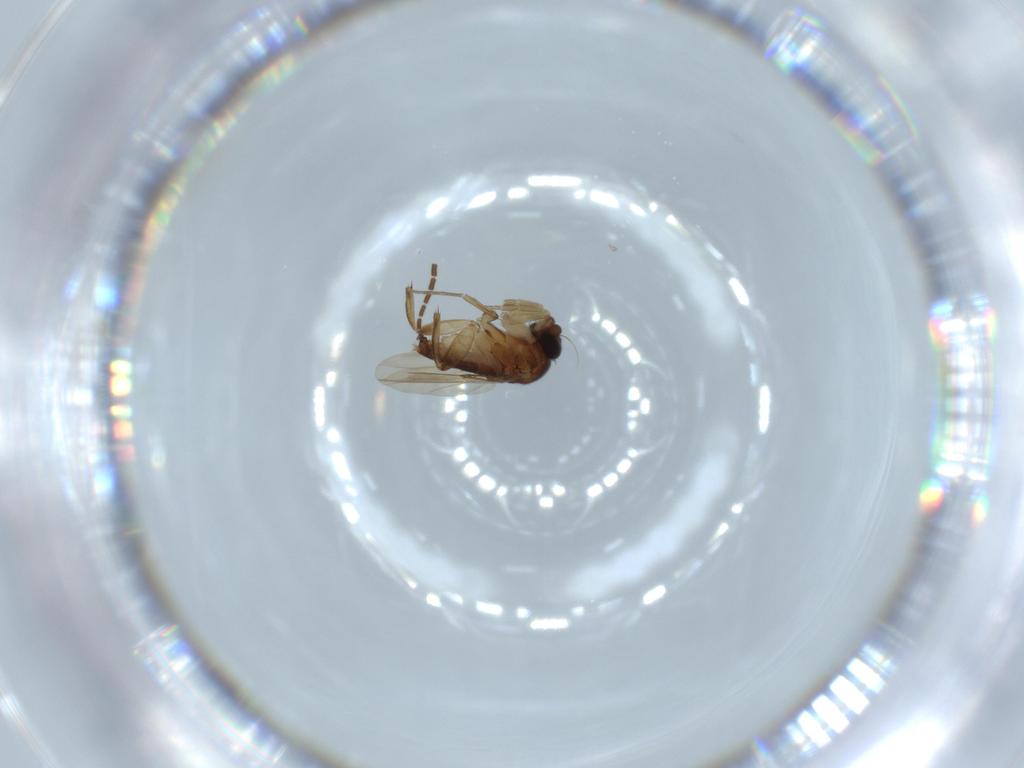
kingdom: Animalia
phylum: Arthropoda
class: Insecta
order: Diptera
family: Phoridae
